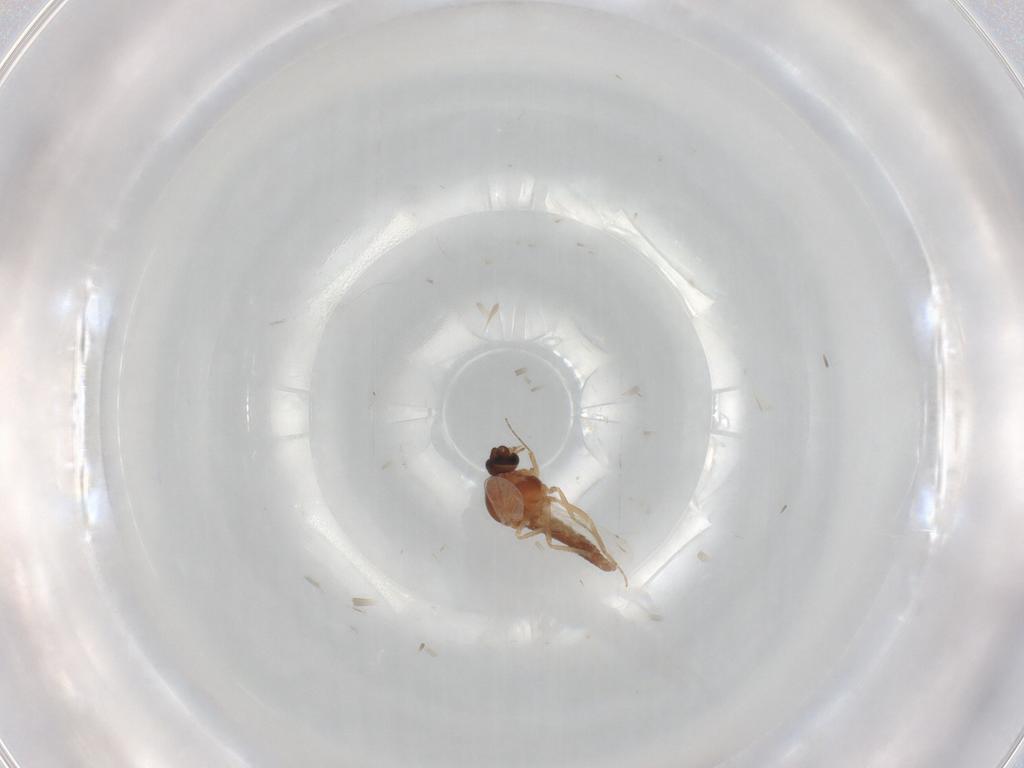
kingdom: Animalia
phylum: Arthropoda
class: Insecta
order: Diptera
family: Ceratopogonidae
